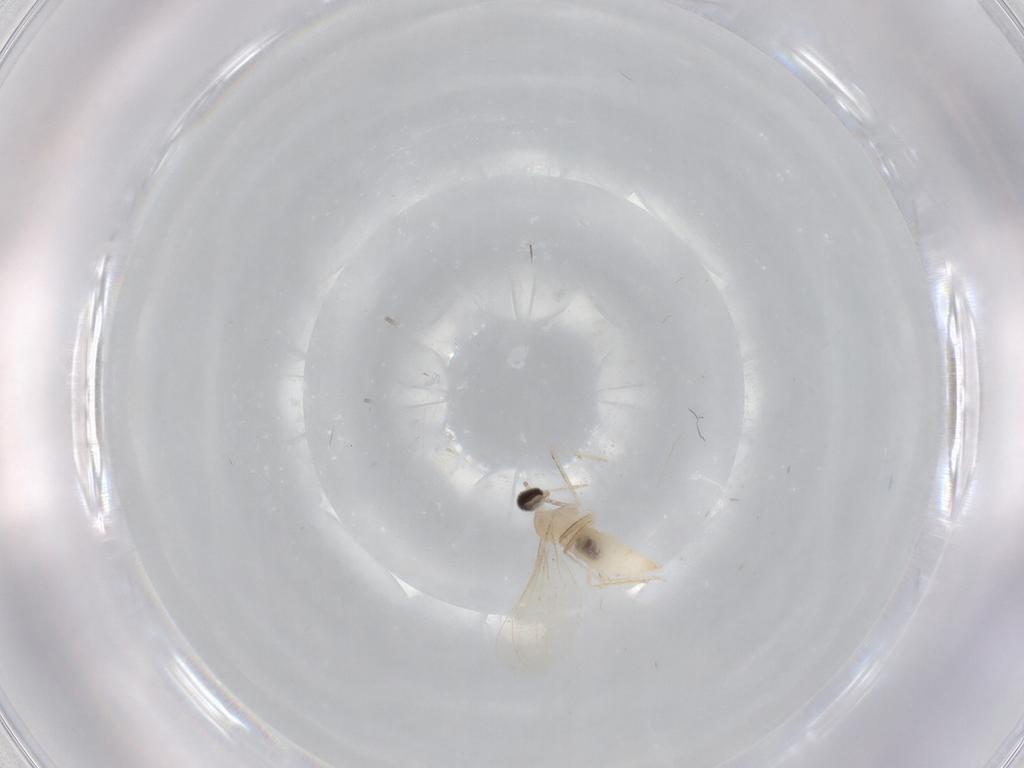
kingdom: Animalia
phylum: Arthropoda
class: Insecta
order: Diptera
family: Cecidomyiidae
